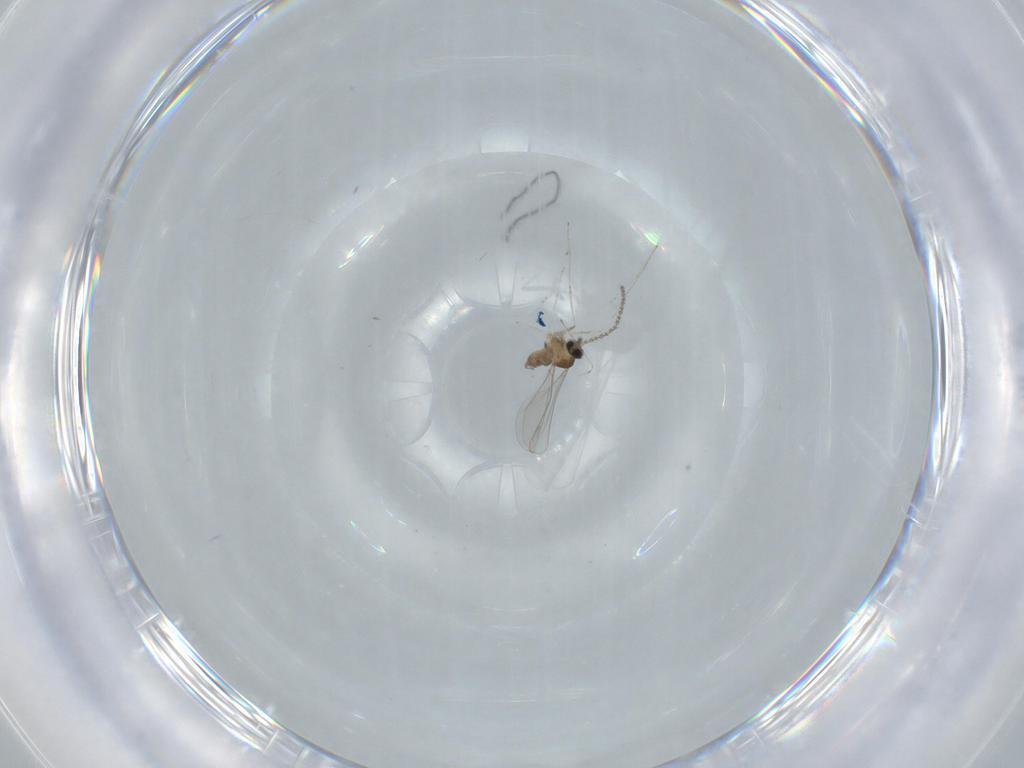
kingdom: Animalia
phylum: Arthropoda
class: Insecta
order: Diptera
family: Cecidomyiidae
